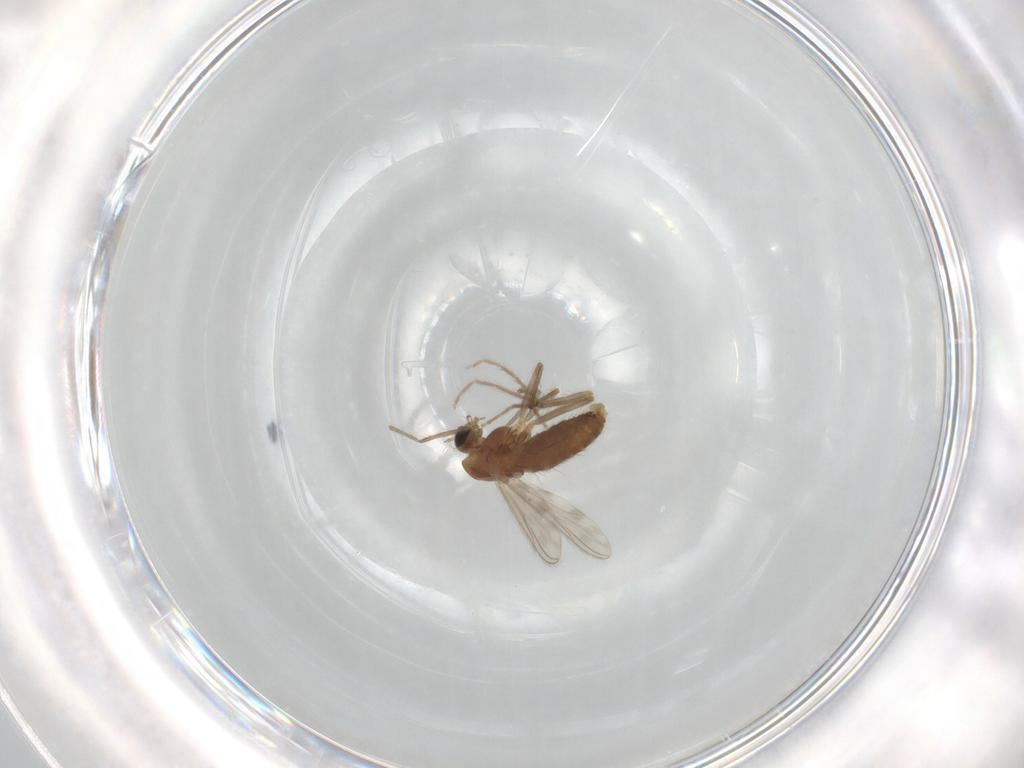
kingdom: Animalia
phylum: Arthropoda
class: Insecta
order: Diptera
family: Chironomidae
